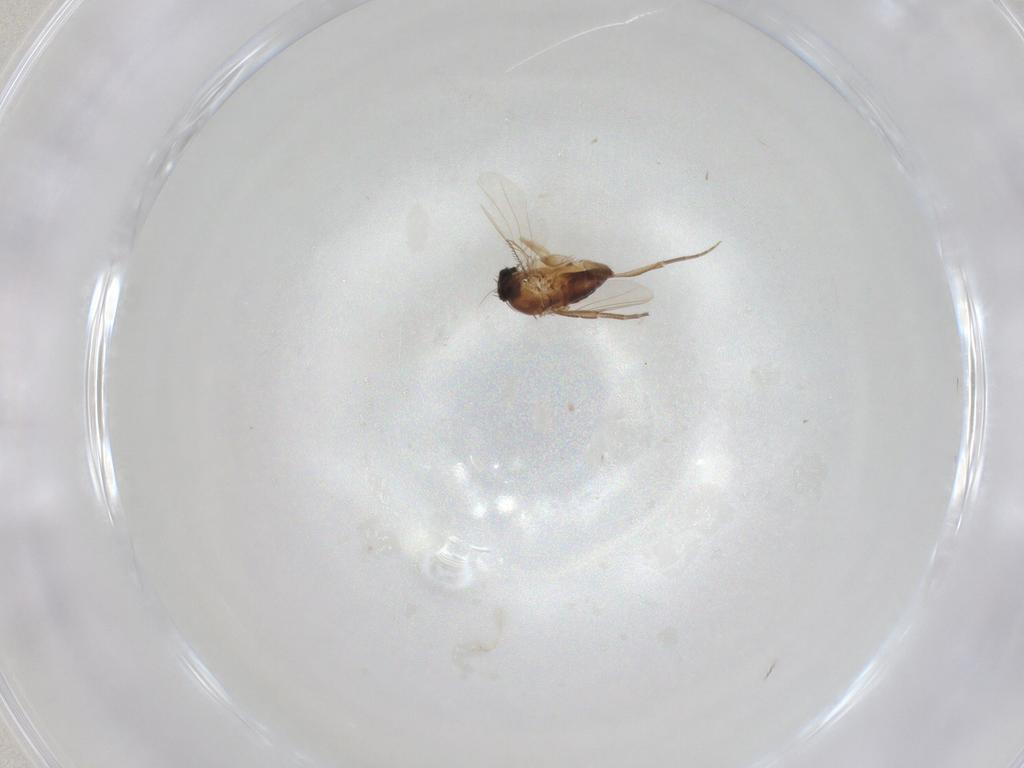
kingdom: Animalia
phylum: Arthropoda
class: Insecta
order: Diptera
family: Phoridae
